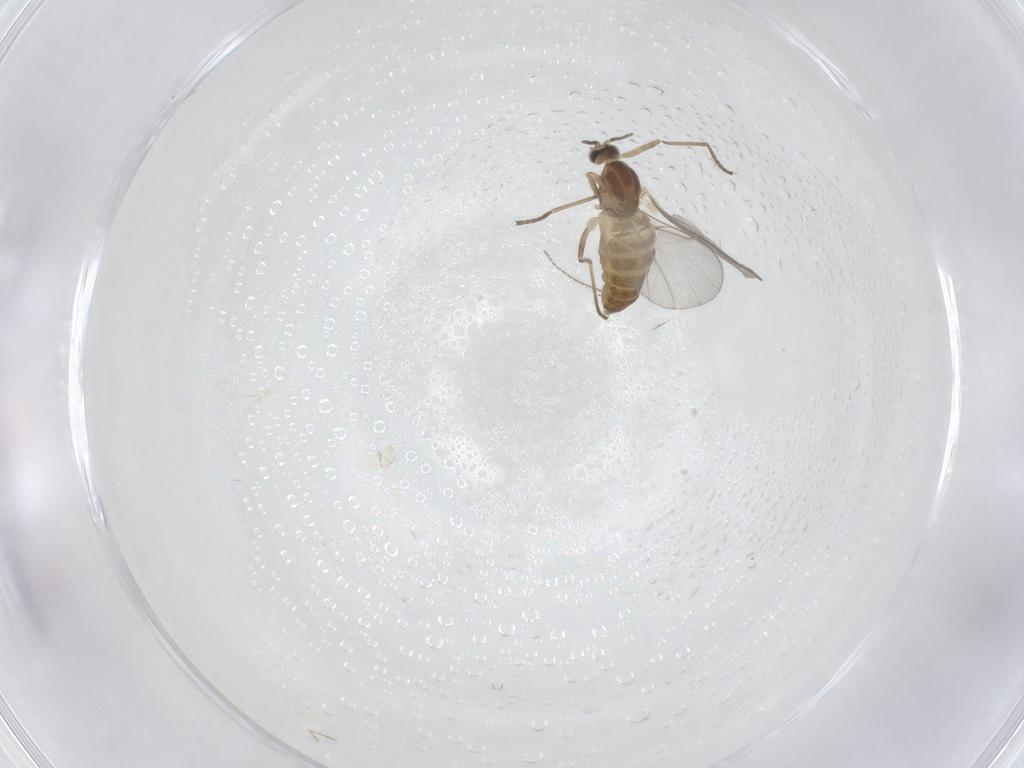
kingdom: Animalia
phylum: Arthropoda
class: Insecta
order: Diptera
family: Cecidomyiidae
